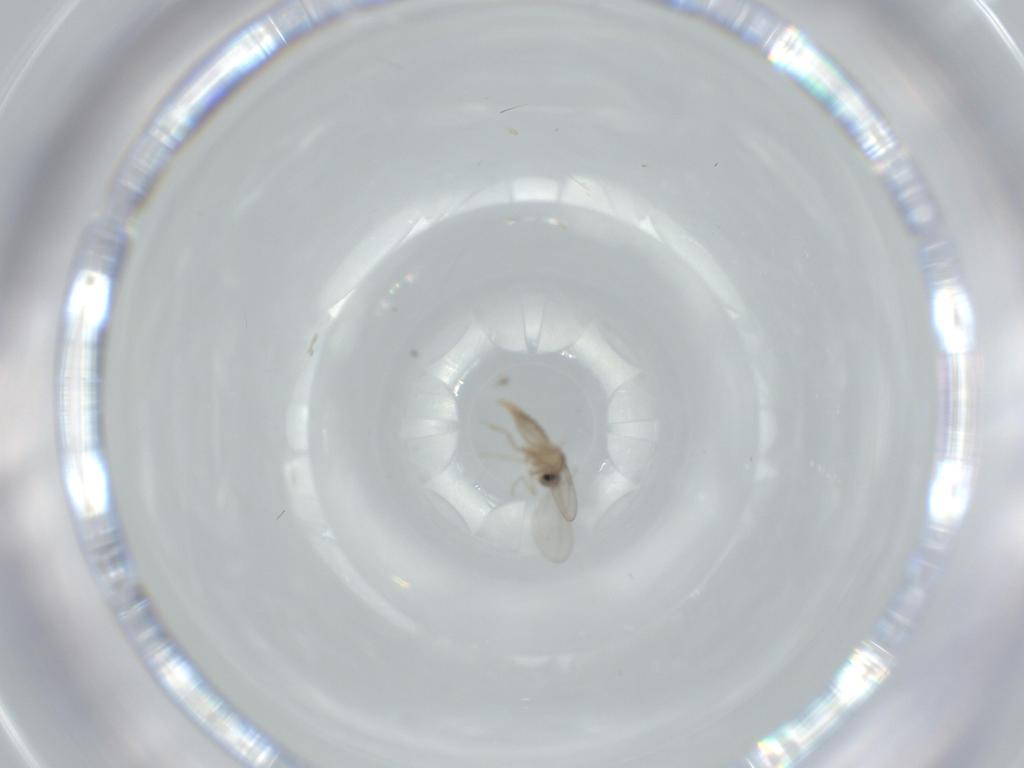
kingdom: Animalia
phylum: Arthropoda
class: Insecta
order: Diptera
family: Cecidomyiidae
